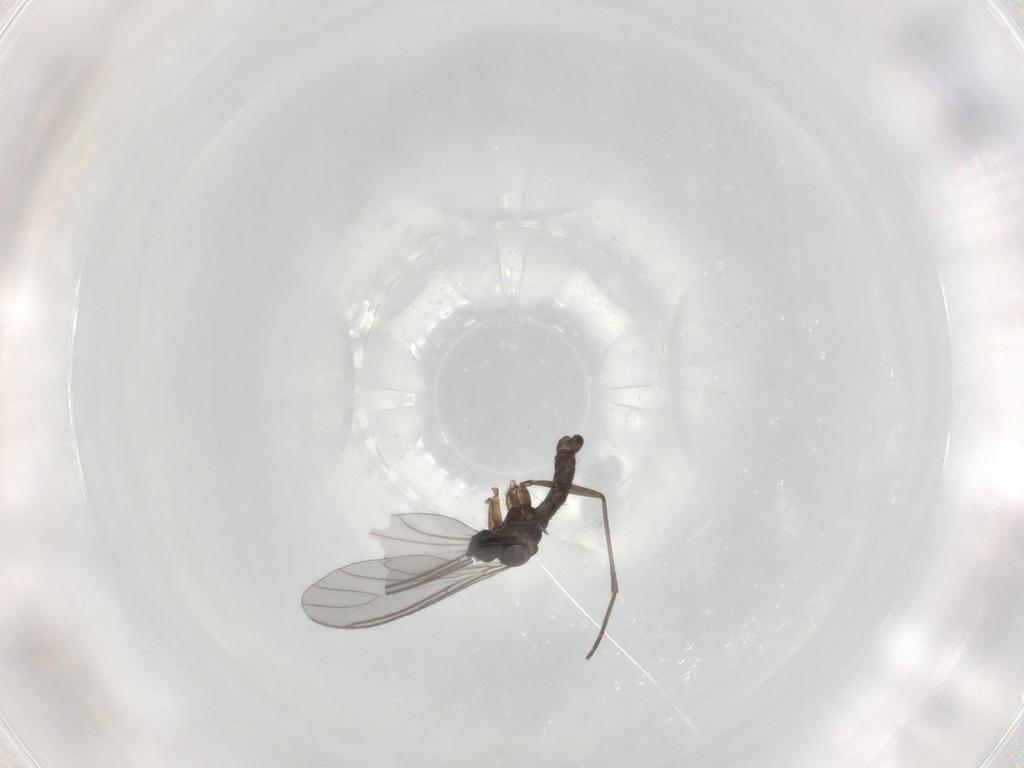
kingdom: Animalia
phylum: Arthropoda
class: Insecta
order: Diptera
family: Sciaridae
